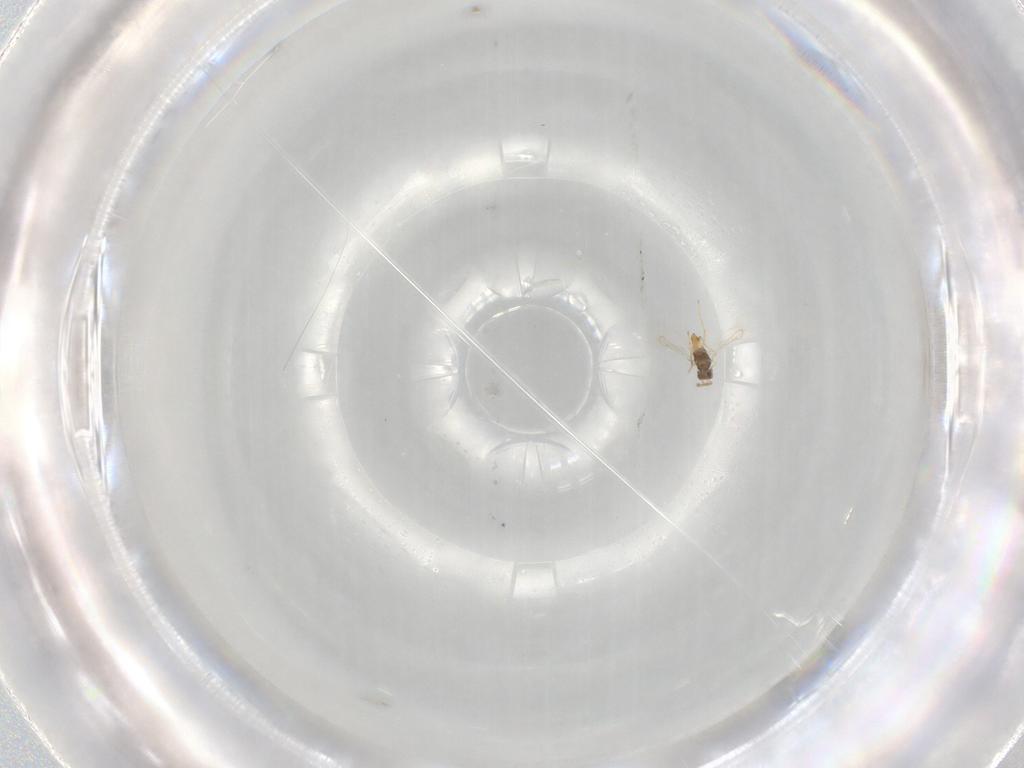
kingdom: Animalia
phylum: Arthropoda
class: Insecta
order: Hymenoptera
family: Eulophidae
